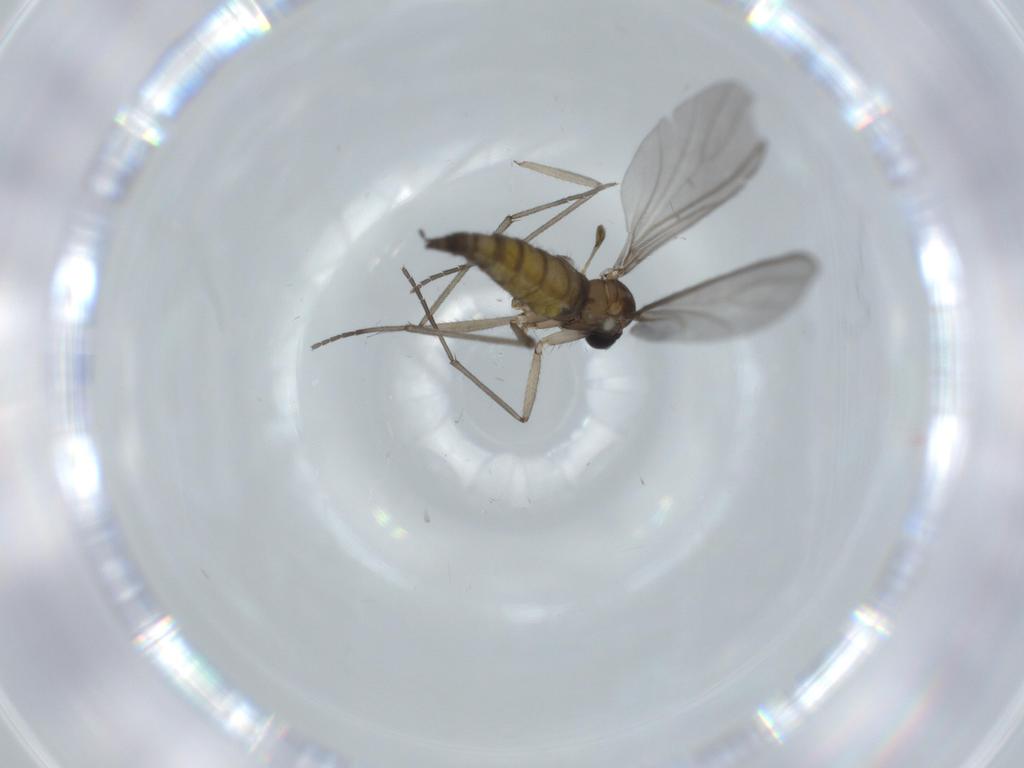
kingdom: Animalia
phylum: Arthropoda
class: Insecta
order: Diptera
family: Sciaridae
